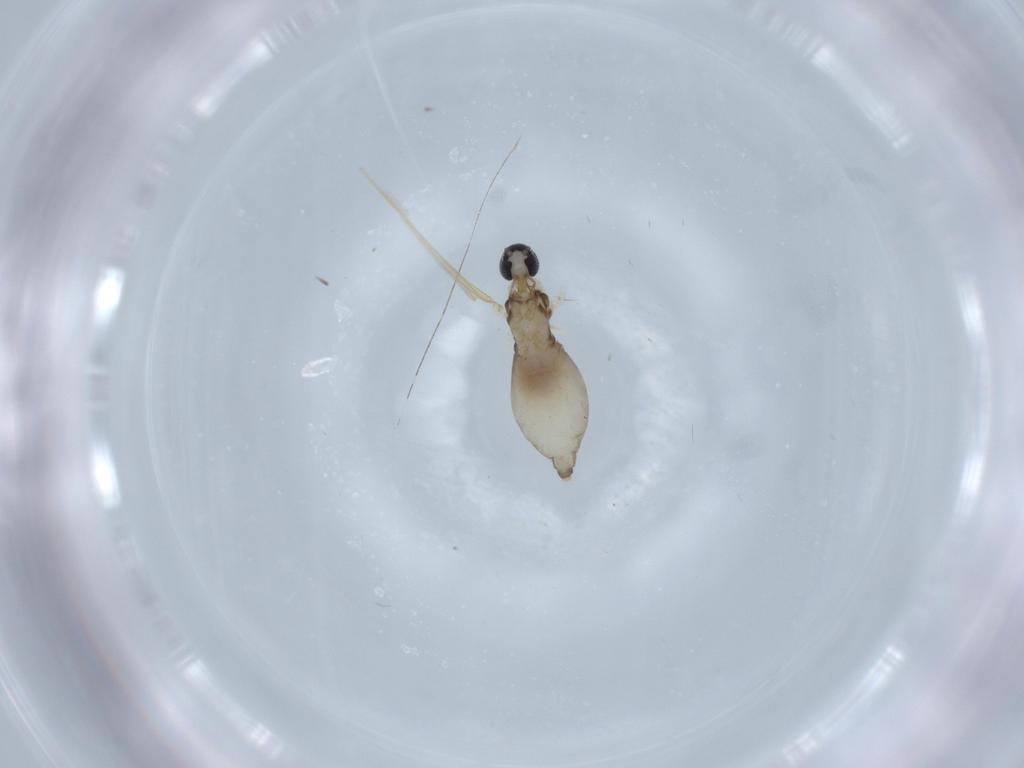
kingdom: Animalia
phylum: Arthropoda
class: Insecta
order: Diptera
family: Cecidomyiidae
